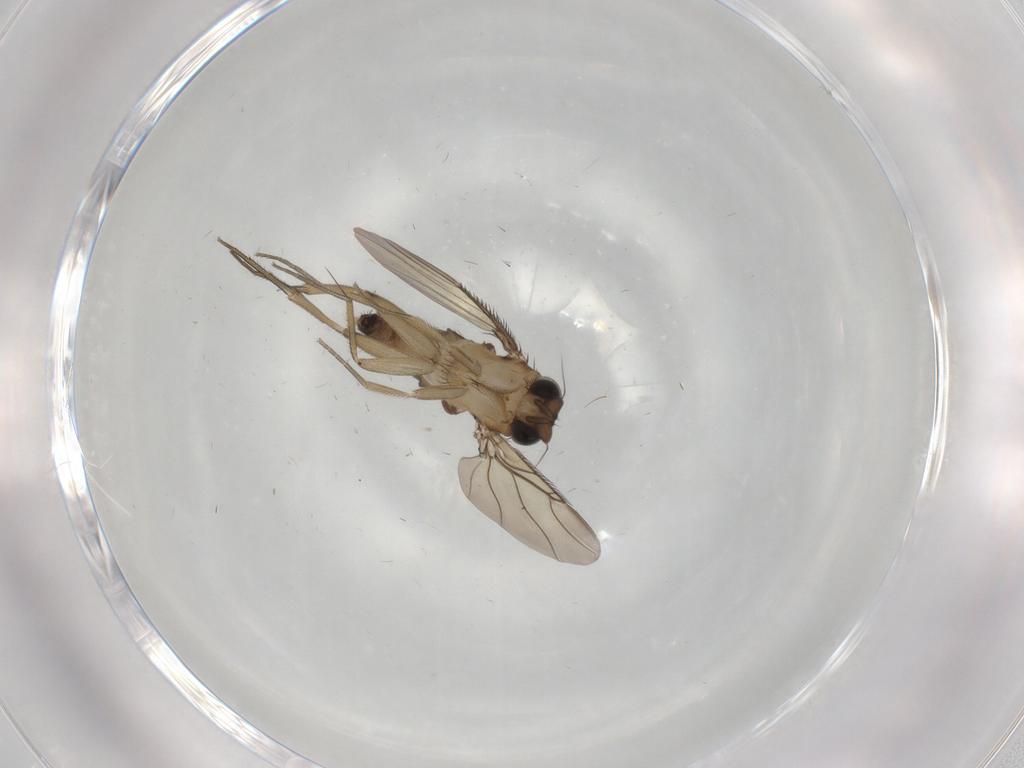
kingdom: Animalia
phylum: Arthropoda
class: Insecta
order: Diptera
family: Phoridae
